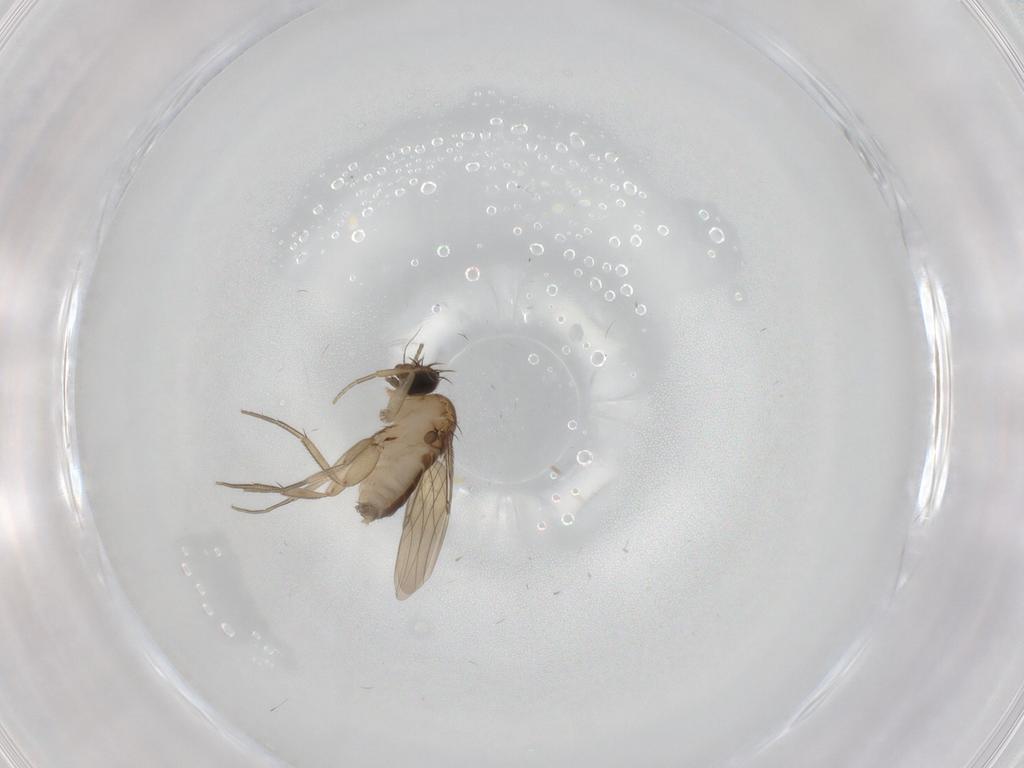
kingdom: Animalia
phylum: Arthropoda
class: Insecta
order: Diptera
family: Phoridae
